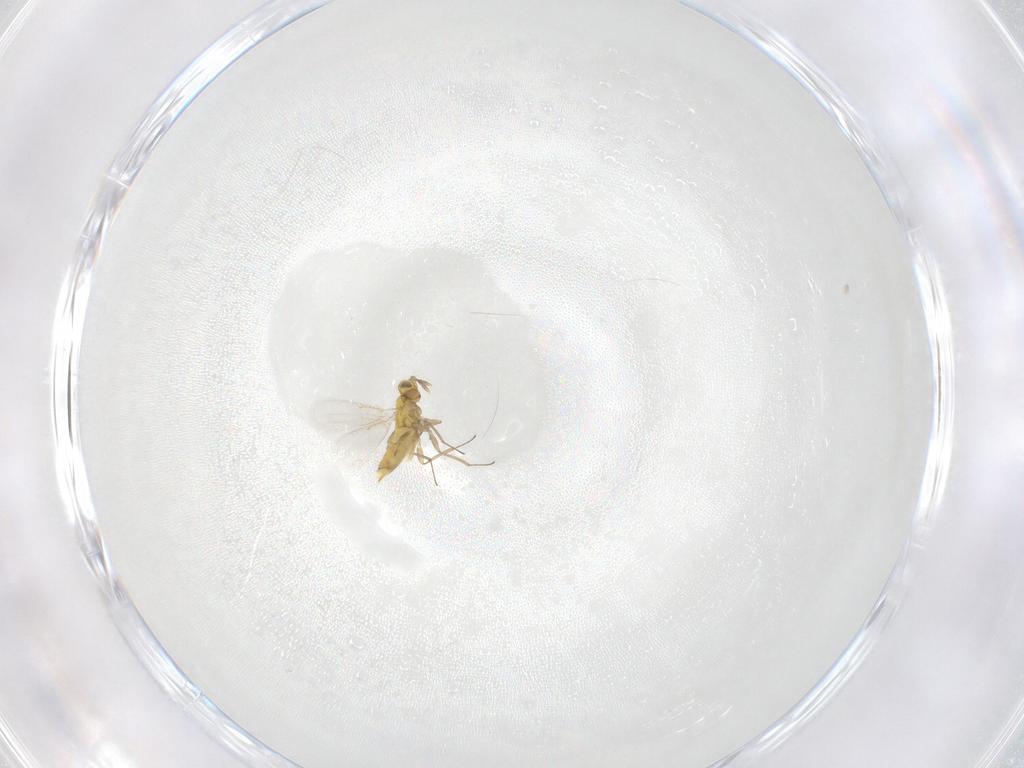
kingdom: Animalia
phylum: Arthropoda
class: Insecta
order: Hymenoptera
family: Aphelinidae
